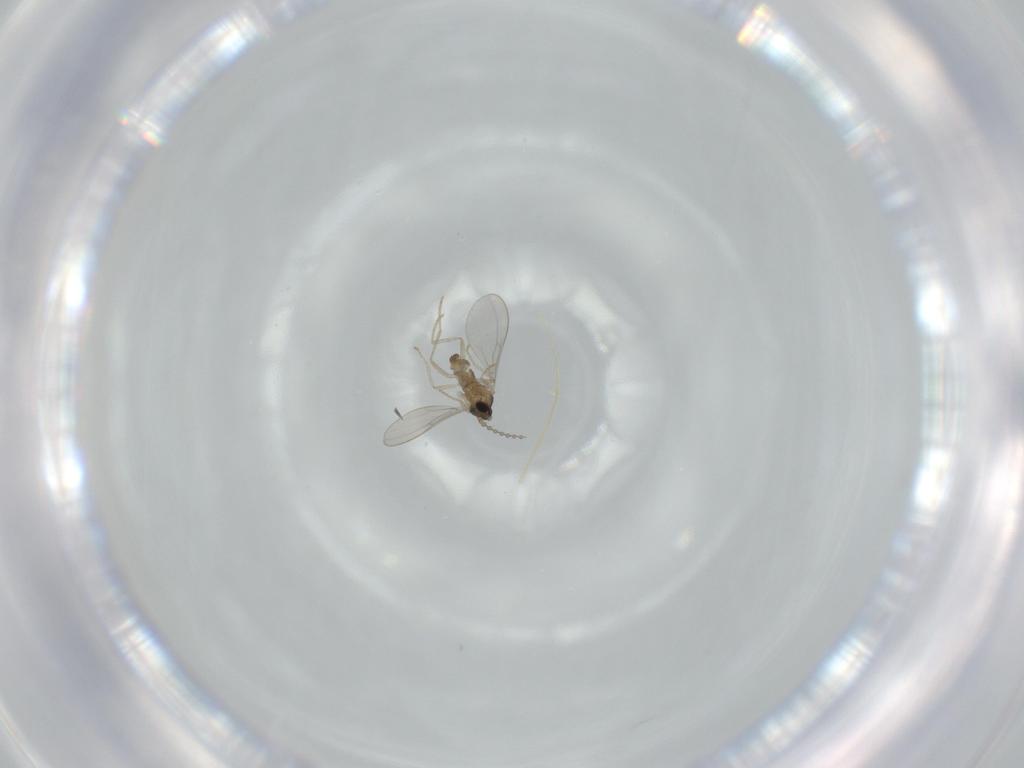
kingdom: Animalia
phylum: Arthropoda
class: Insecta
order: Diptera
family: Cecidomyiidae
